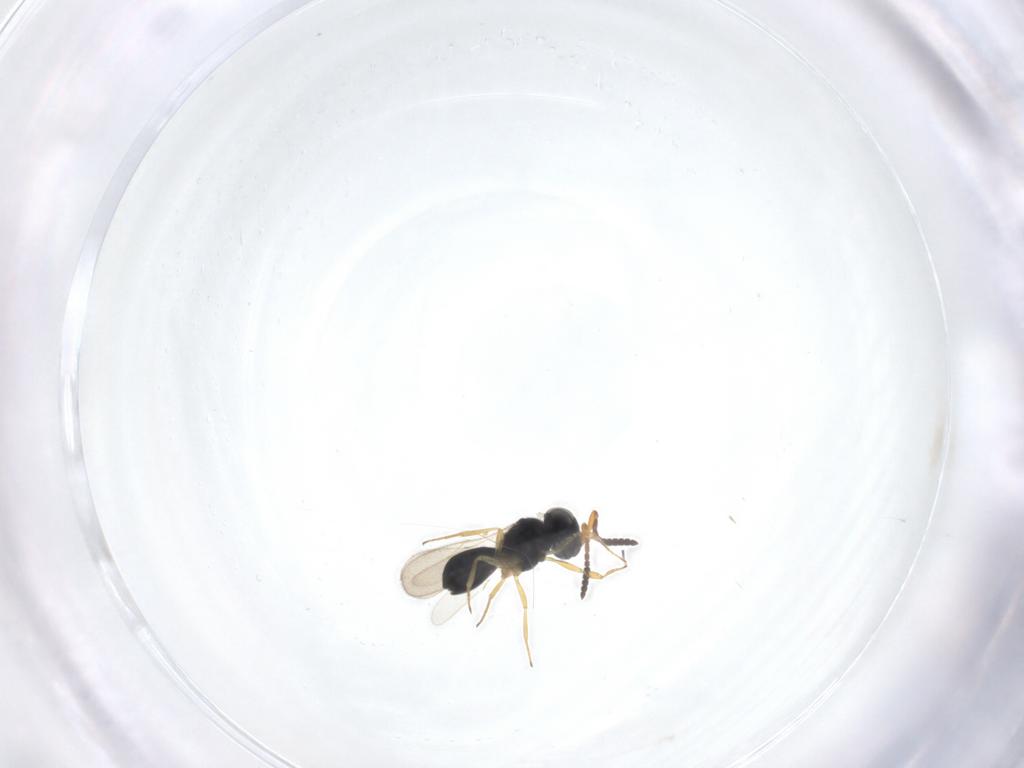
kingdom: Animalia
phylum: Arthropoda
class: Insecta
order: Hymenoptera
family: Scelionidae
